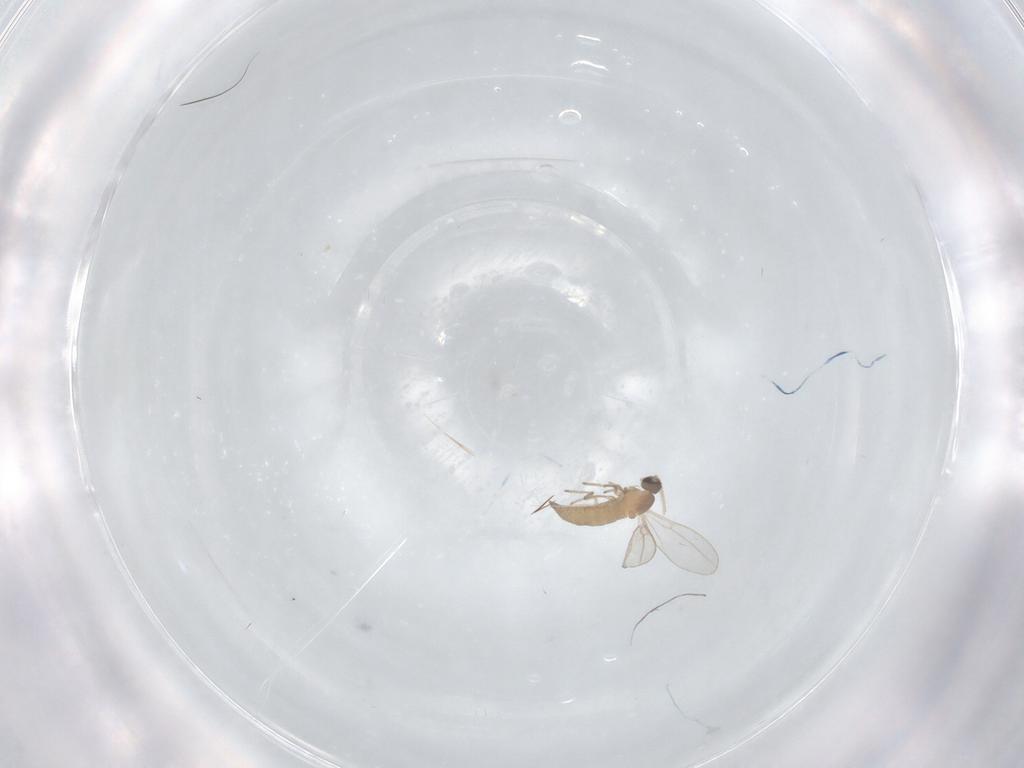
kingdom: Animalia
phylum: Arthropoda
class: Insecta
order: Diptera
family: Cecidomyiidae
